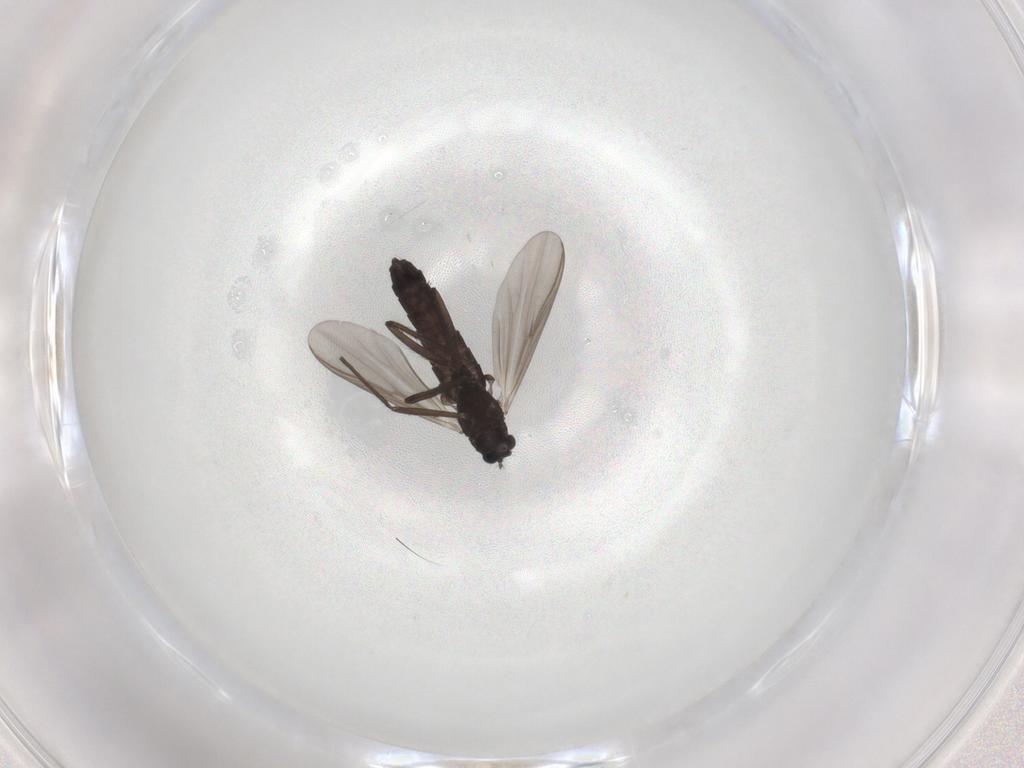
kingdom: Animalia
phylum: Arthropoda
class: Insecta
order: Diptera
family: Chironomidae
